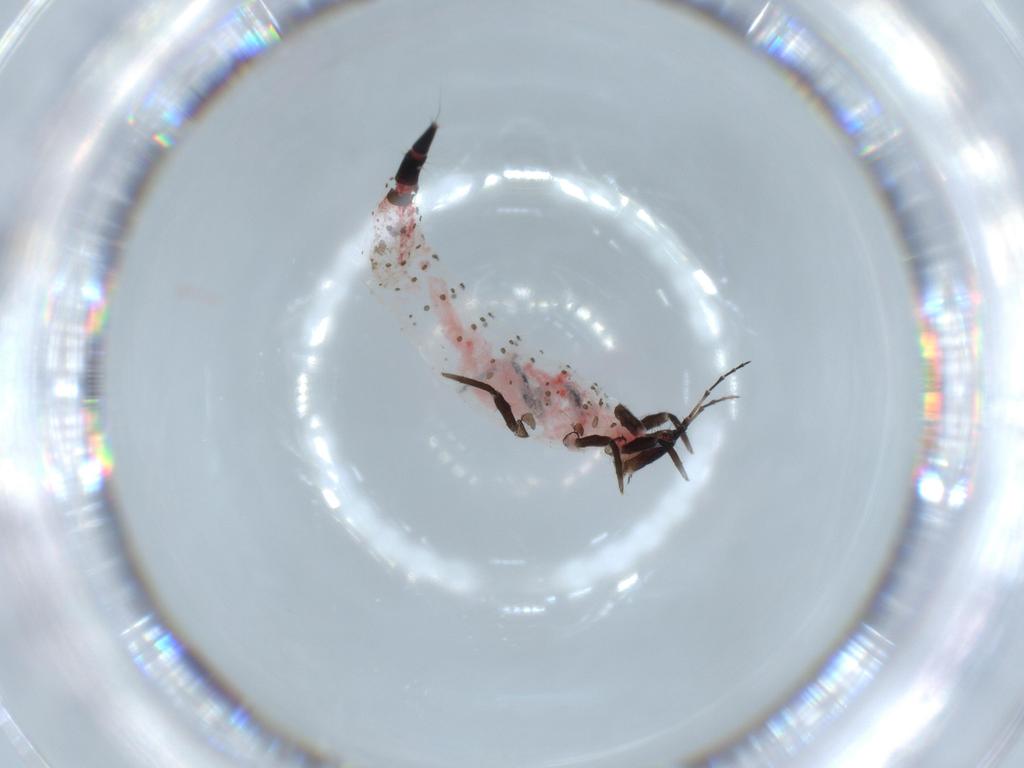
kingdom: Animalia
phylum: Arthropoda
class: Insecta
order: Thysanoptera
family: Phlaeothripidae
